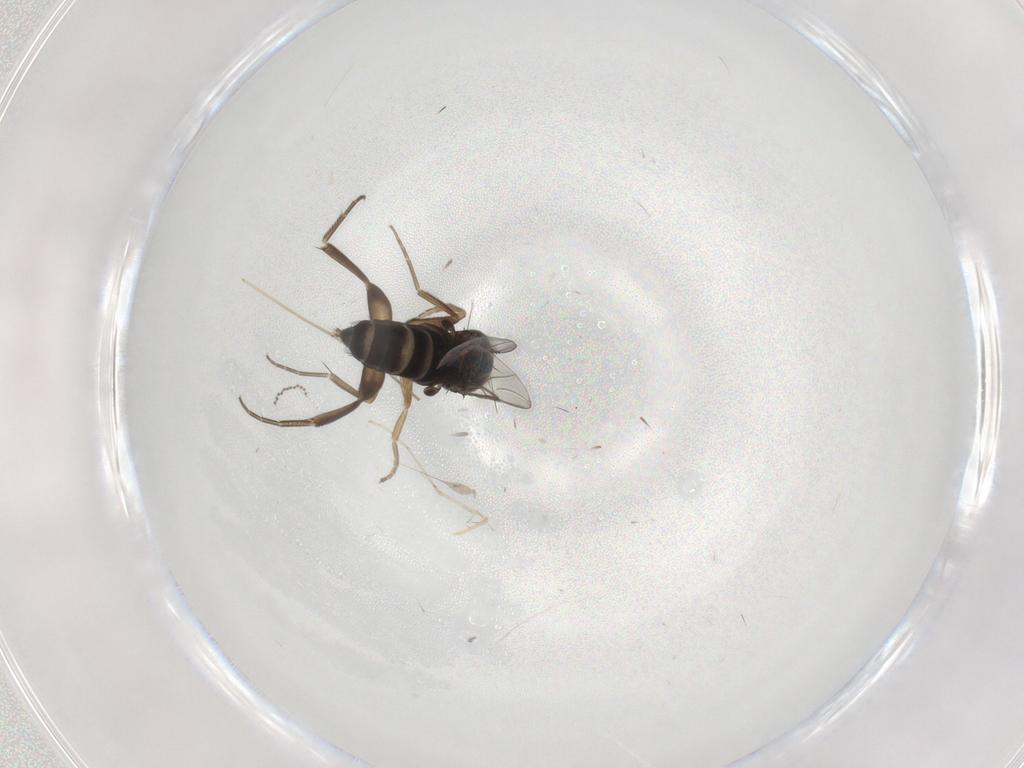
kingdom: Animalia
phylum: Arthropoda
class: Insecta
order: Diptera
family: Phoridae
